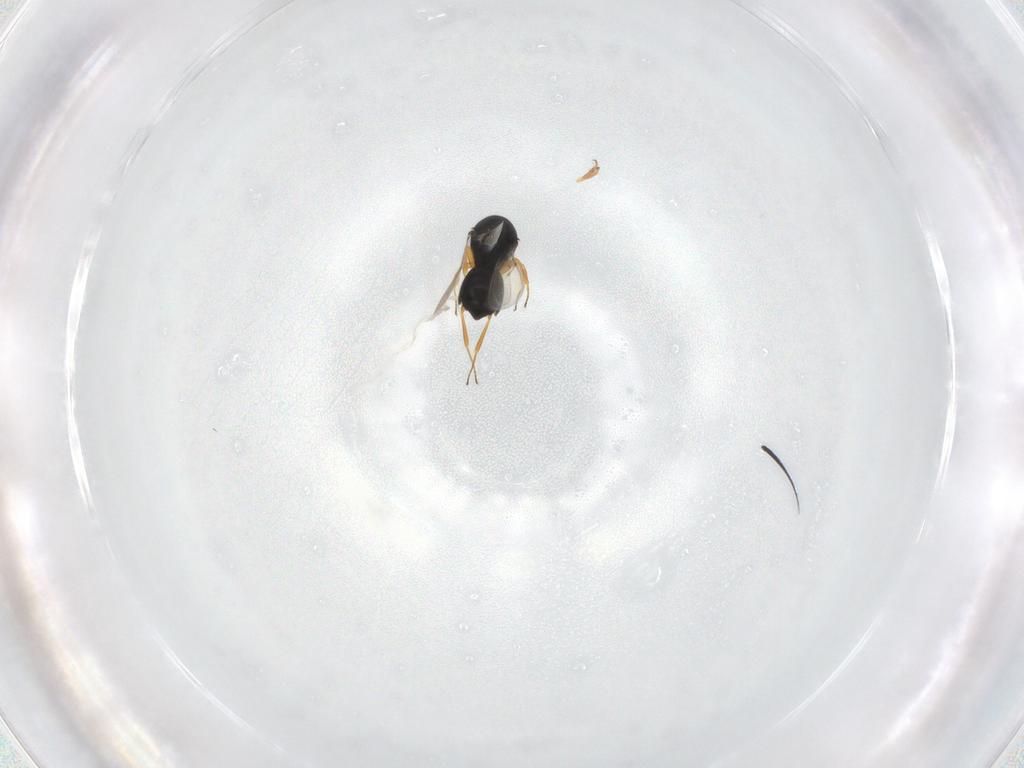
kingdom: Animalia
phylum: Arthropoda
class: Insecta
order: Hymenoptera
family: Scelionidae
